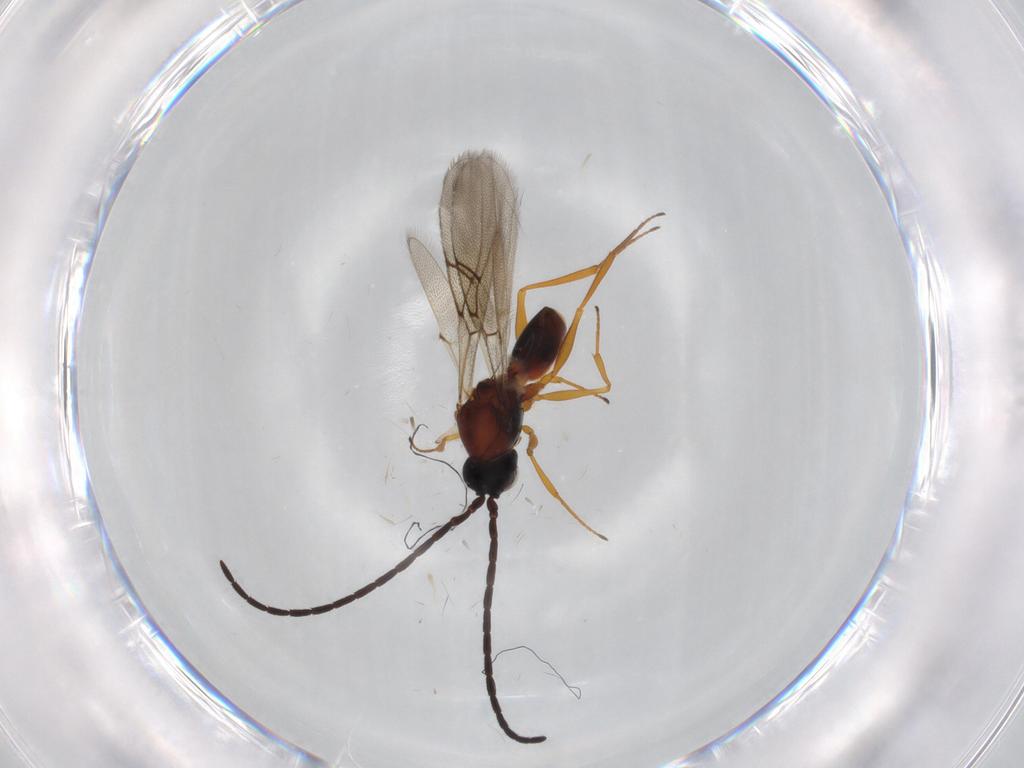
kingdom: Animalia
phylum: Arthropoda
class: Insecta
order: Hymenoptera
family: Figitidae
